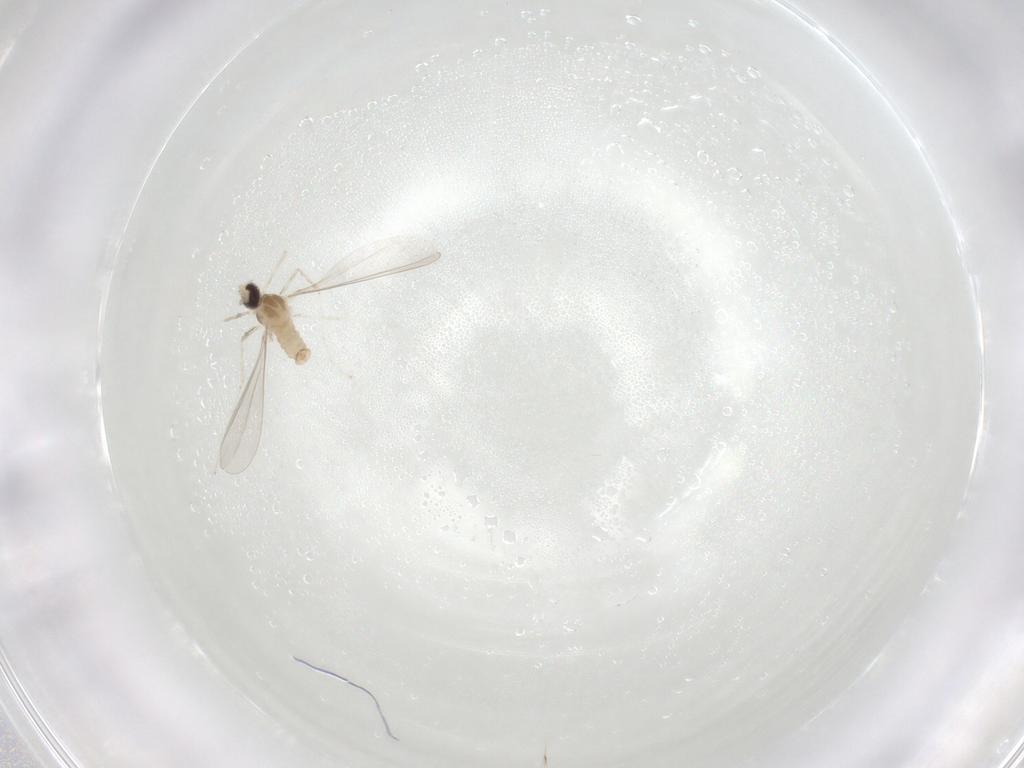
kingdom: Animalia
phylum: Arthropoda
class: Insecta
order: Diptera
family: Cecidomyiidae
